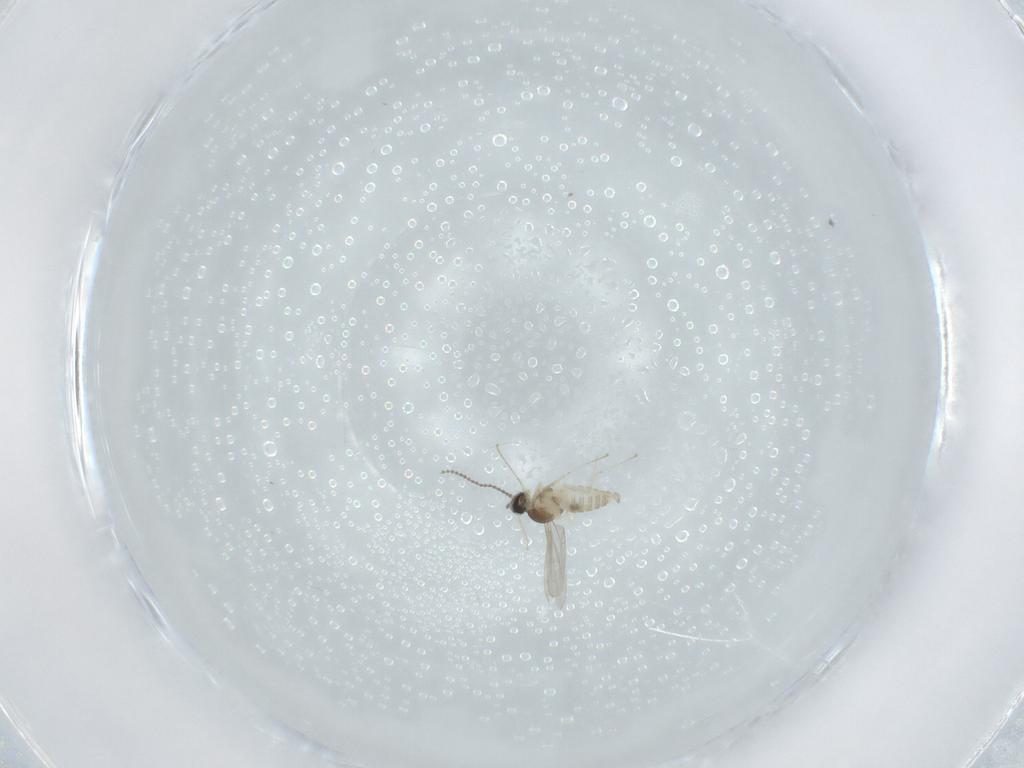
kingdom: Animalia
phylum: Arthropoda
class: Insecta
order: Diptera
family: Cecidomyiidae
